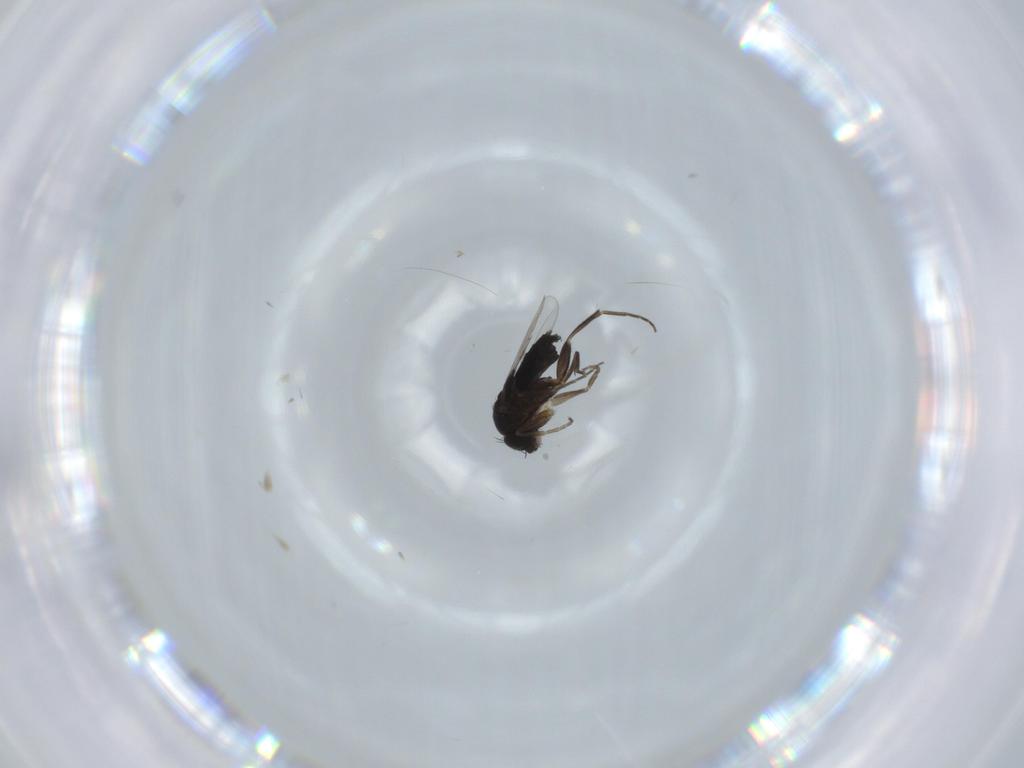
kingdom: Animalia
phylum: Arthropoda
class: Insecta
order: Diptera
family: Phoridae
